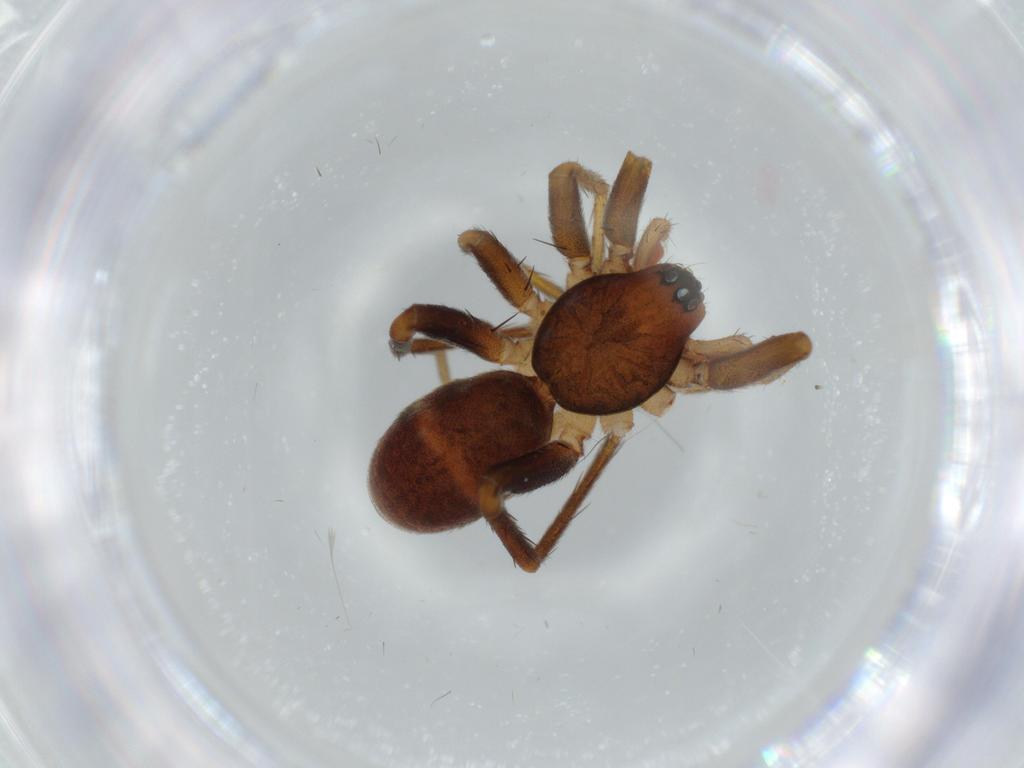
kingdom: Animalia
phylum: Arthropoda
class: Arachnida
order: Araneae
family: Corinnidae
